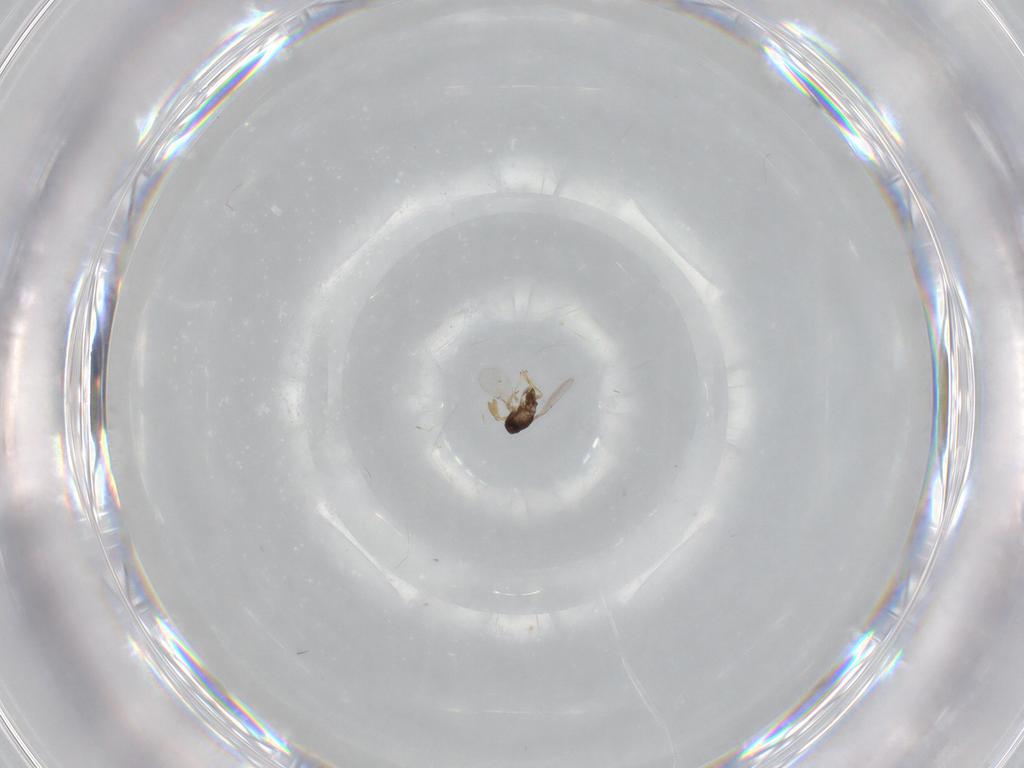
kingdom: Animalia
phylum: Arthropoda
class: Insecta
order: Hymenoptera
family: Encyrtidae
